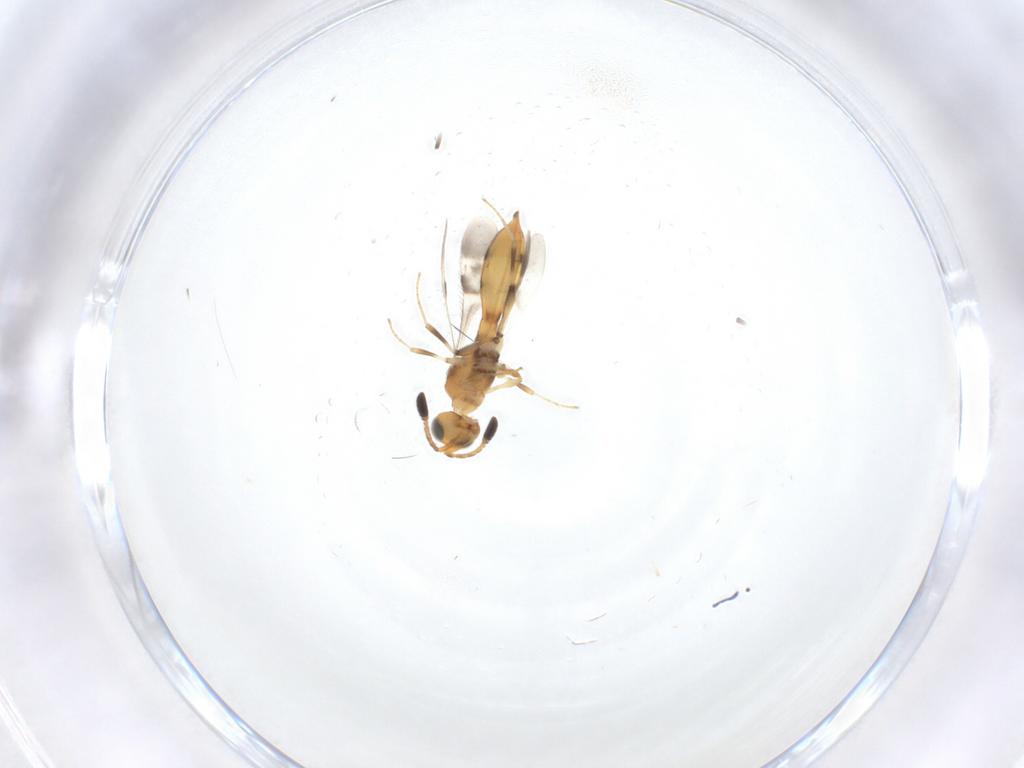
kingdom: Animalia
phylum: Arthropoda
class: Insecta
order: Hymenoptera
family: Scelionidae
